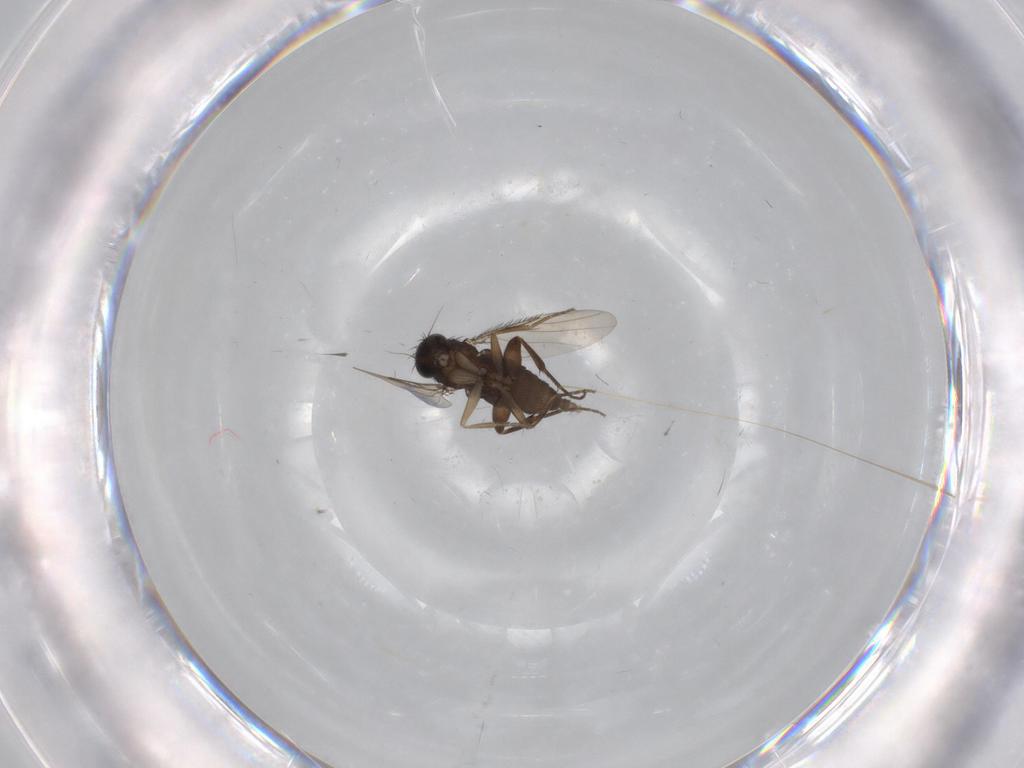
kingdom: Animalia
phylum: Arthropoda
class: Insecta
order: Diptera
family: Phoridae
